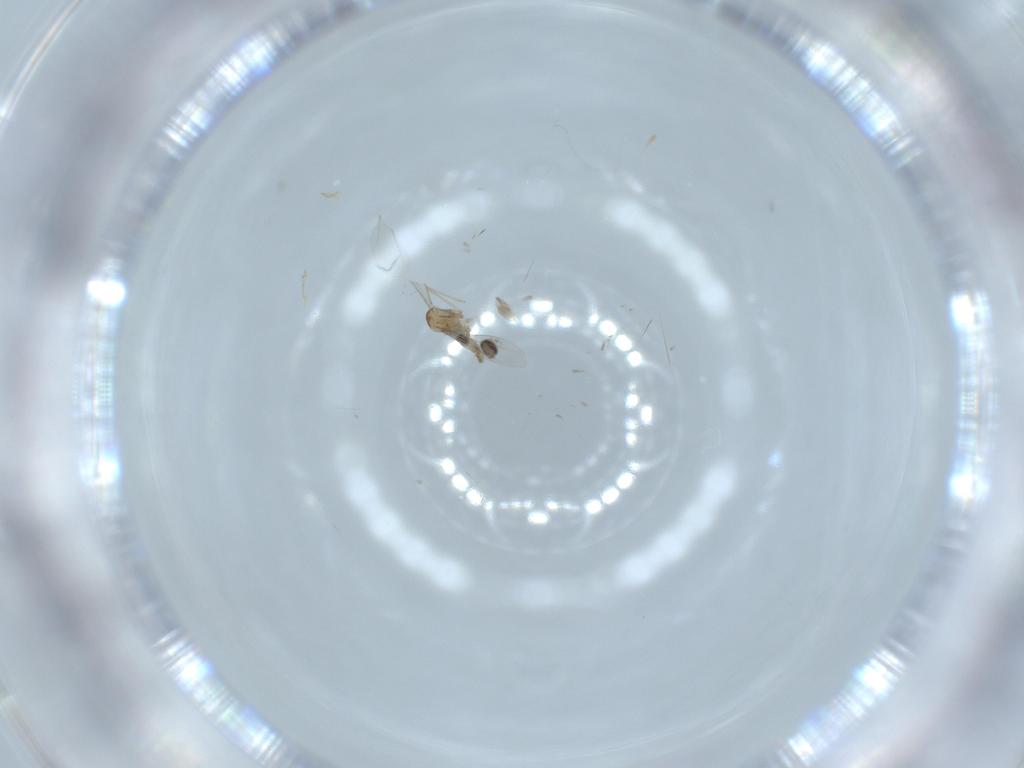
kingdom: Animalia
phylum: Arthropoda
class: Insecta
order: Diptera
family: Cecidomyiidae
